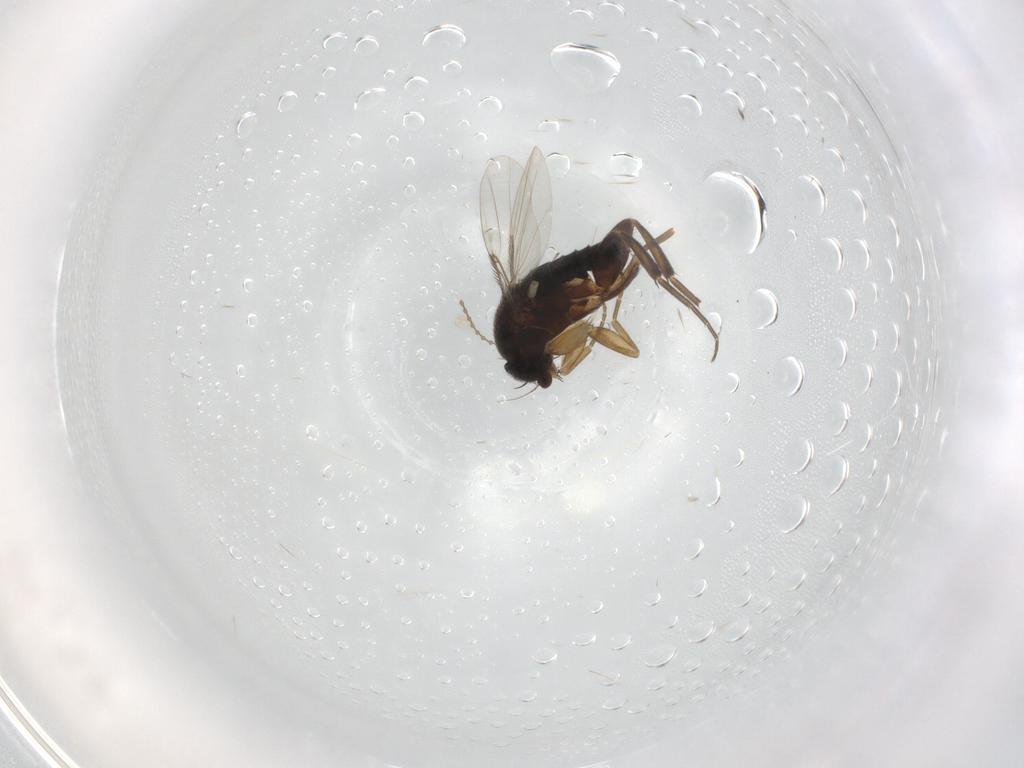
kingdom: Animalia
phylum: Arthropoda
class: Insecta
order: Diptera
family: Phoridae
